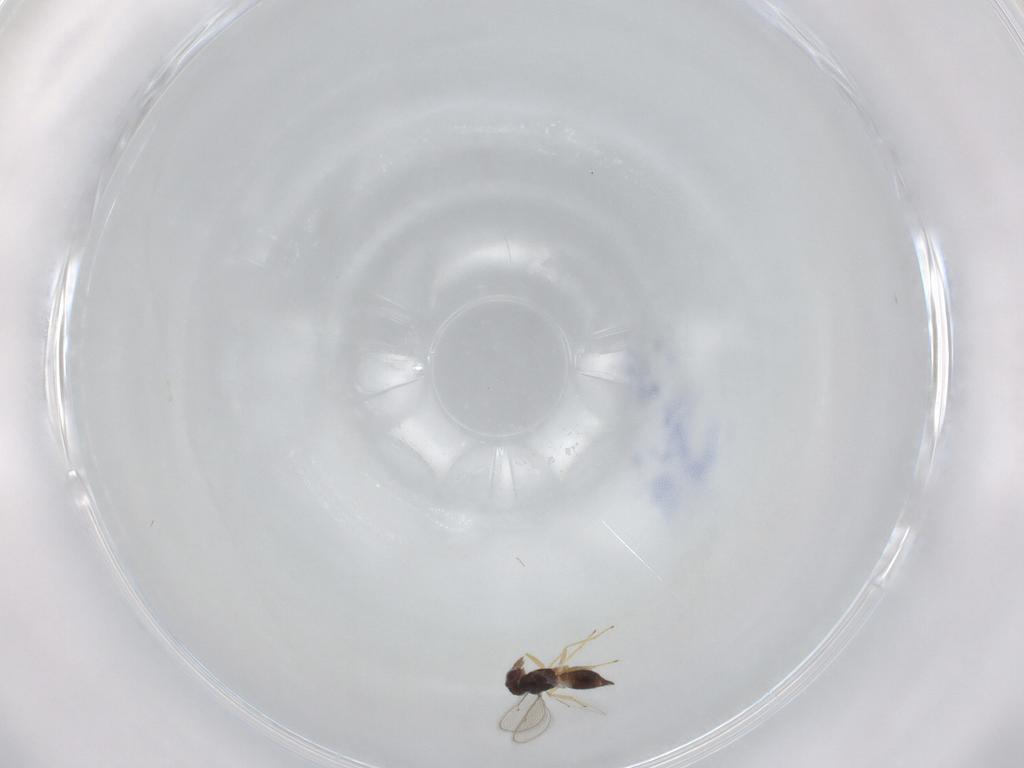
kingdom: Animalia
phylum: Arthropoda
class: Insecta
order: Hymenoptera
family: Eulophidae
